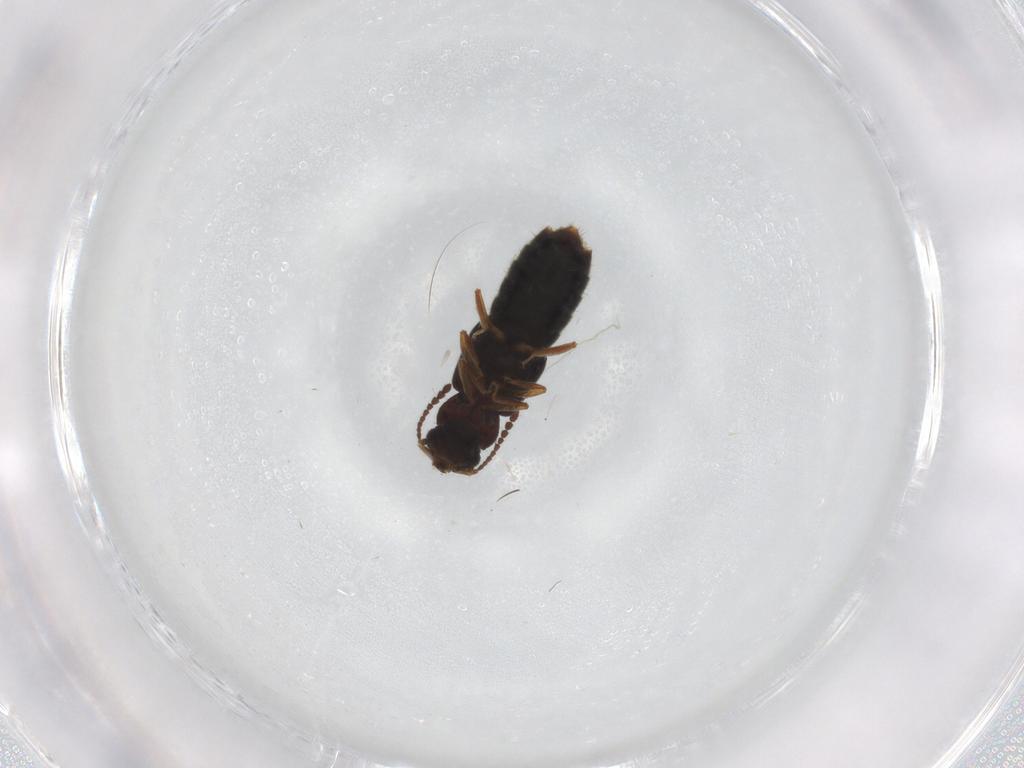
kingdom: Animalia
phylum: Arthropoda
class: Insecta
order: Coleoptera
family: Staphylinidae
